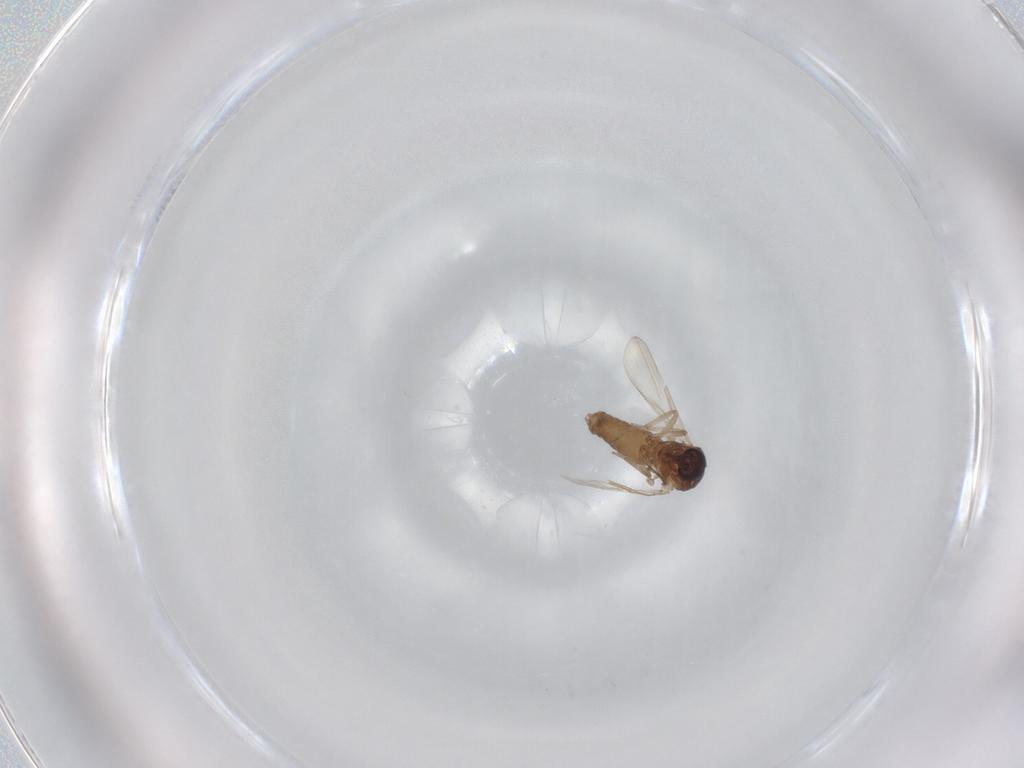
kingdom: Animalia
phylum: Arthropoda
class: Insecta
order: Diptera
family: Ceratopogonidae
